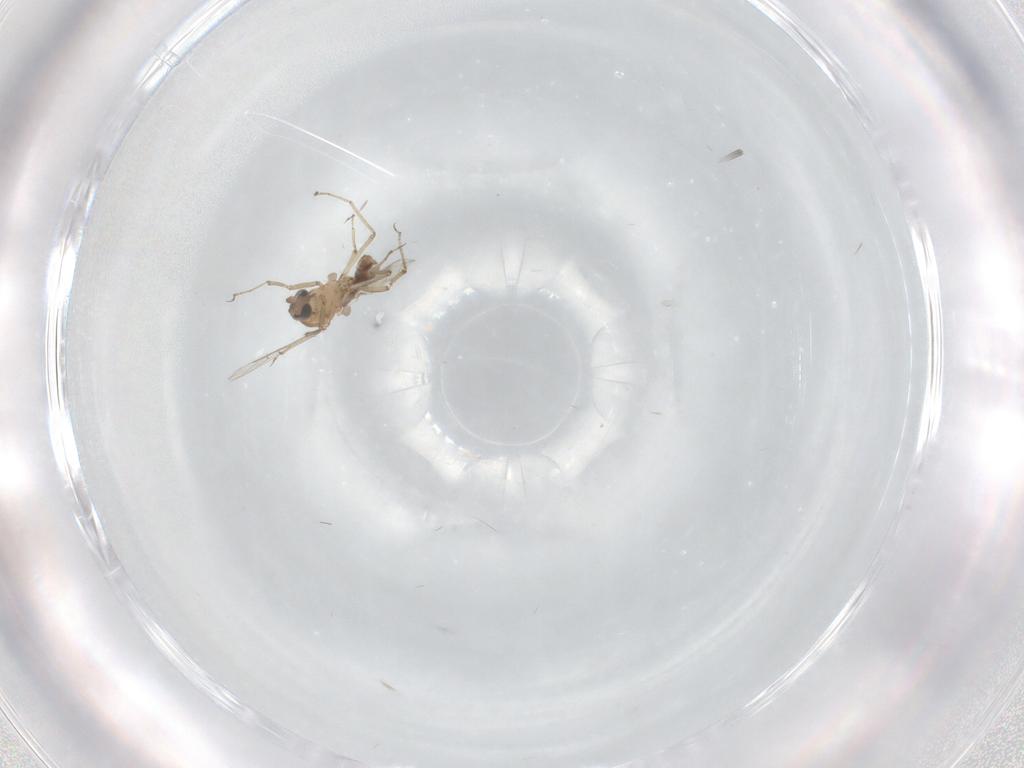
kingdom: Animalia
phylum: Arthropoda
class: Insecta
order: Diptera
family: Ceratopogonidae
